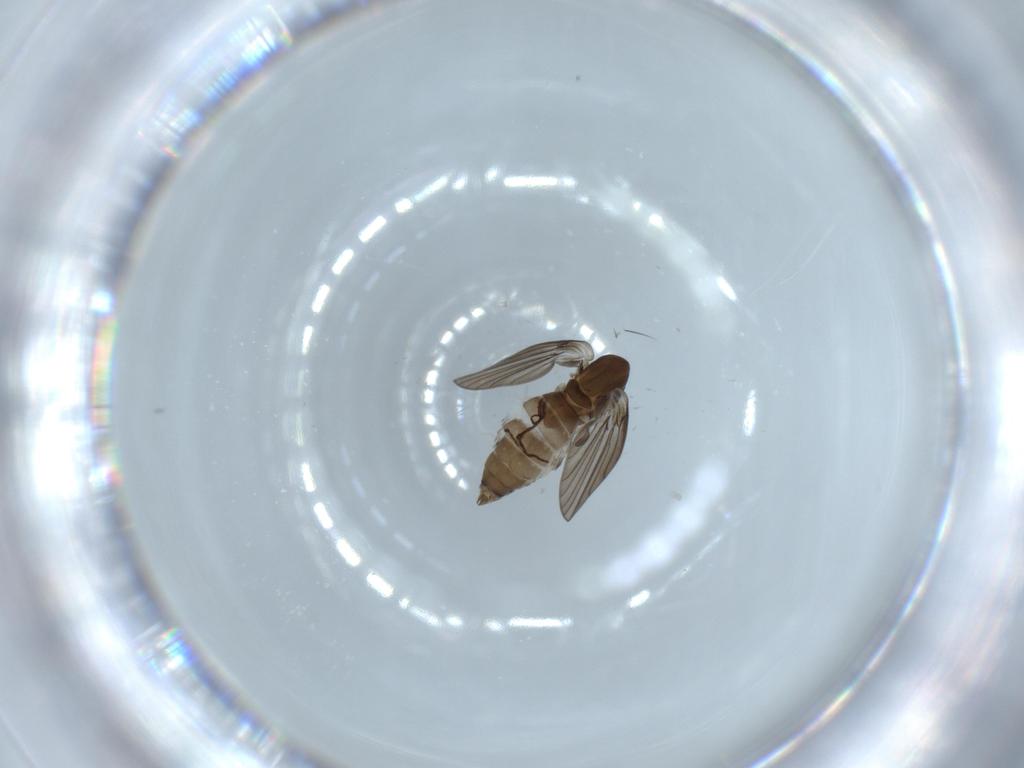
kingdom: Animalia
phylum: Arthropoda
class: Insecta
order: Diptera
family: Psychodidae
